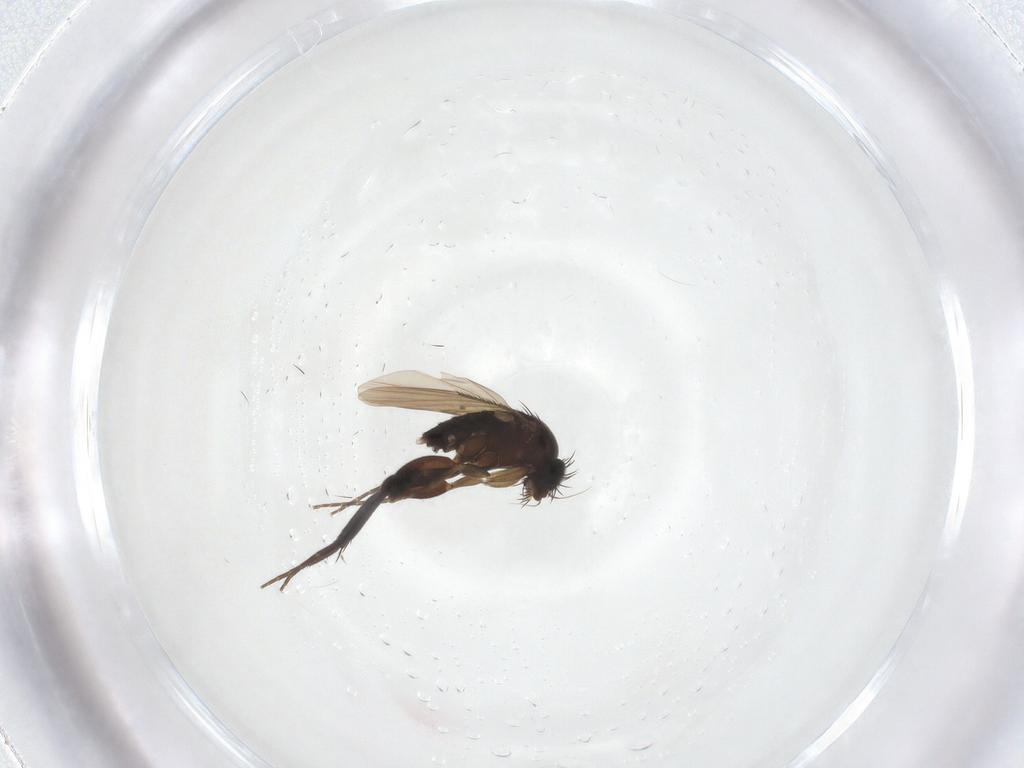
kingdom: Animalia
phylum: Arthropoda
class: Insecta
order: Diptera
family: Phoridae
